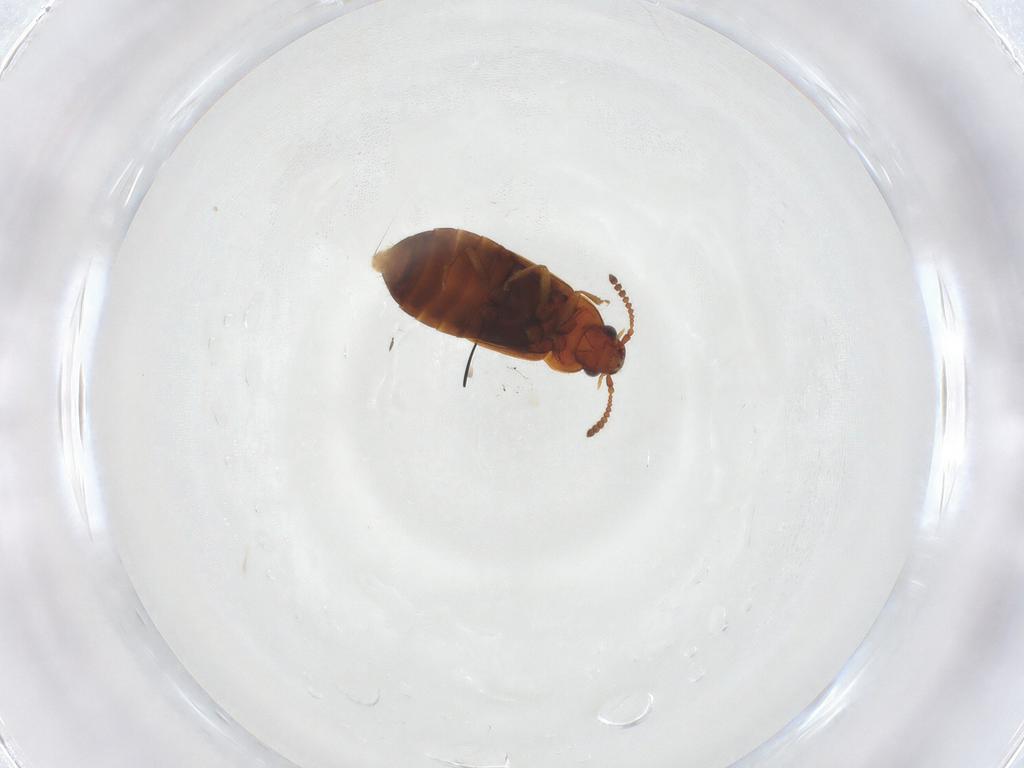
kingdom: Animalia
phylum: Arthropoda
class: Insecta
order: Coleoptera
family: Staphylinidae
